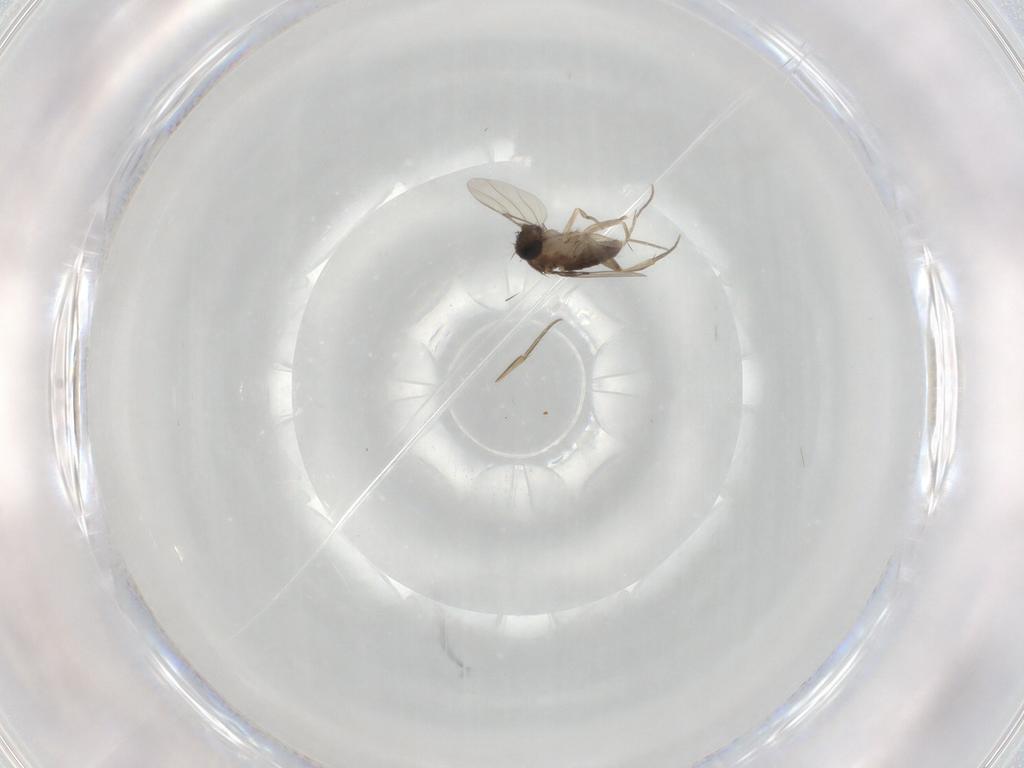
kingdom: Animalia
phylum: Arthropoda
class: Insecta
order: Diptera
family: Phoridae
